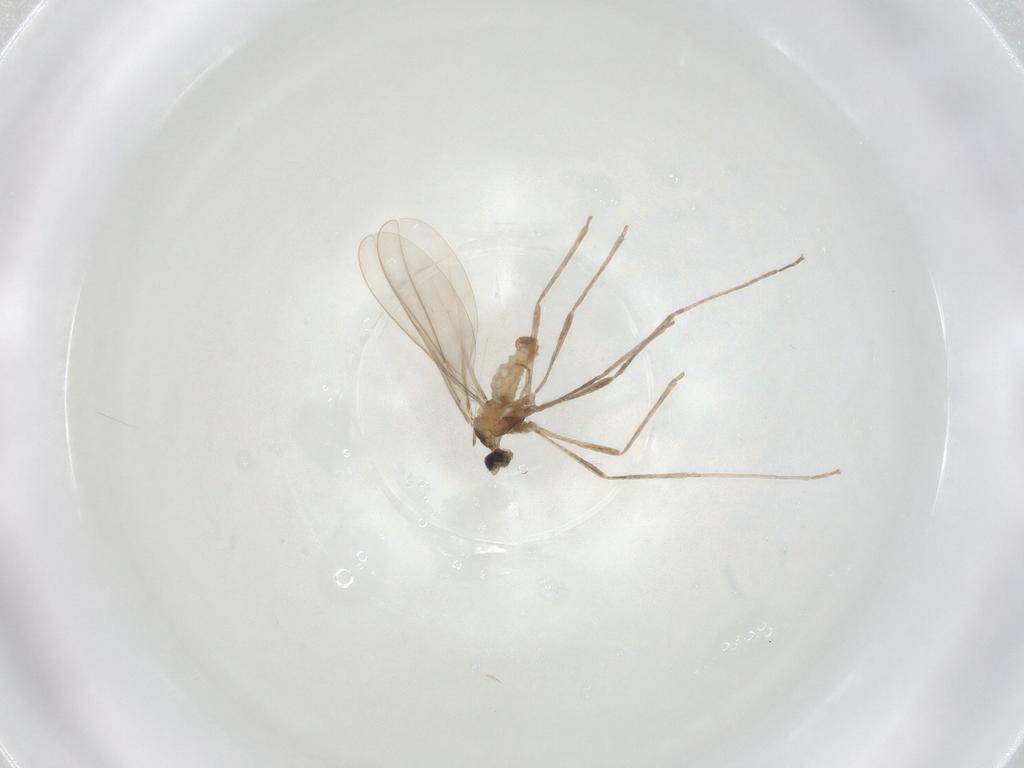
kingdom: Animalia
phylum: Arthropoda
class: Insecta
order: Diptera
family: Cecidomyiidae
